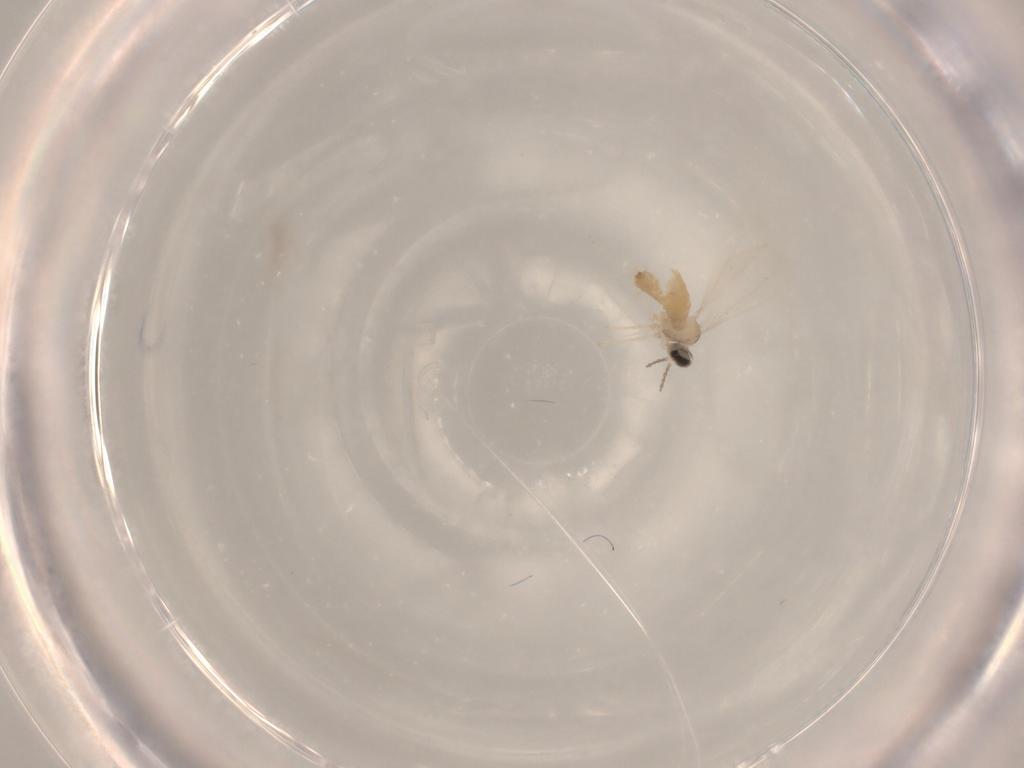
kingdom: Animalia
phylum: Arthropoda
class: Insecta
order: Diptera
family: Cecidomyiidae
